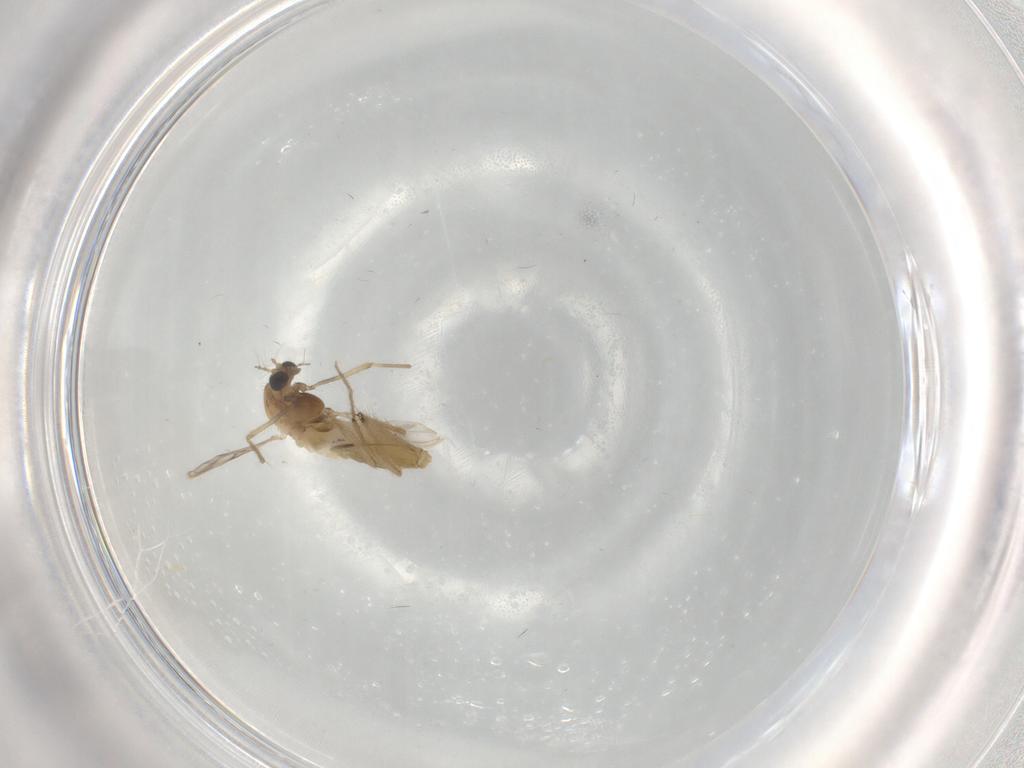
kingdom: Animalia
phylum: Arthropoda
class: Insecta
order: Diptera
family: Chironomidae
